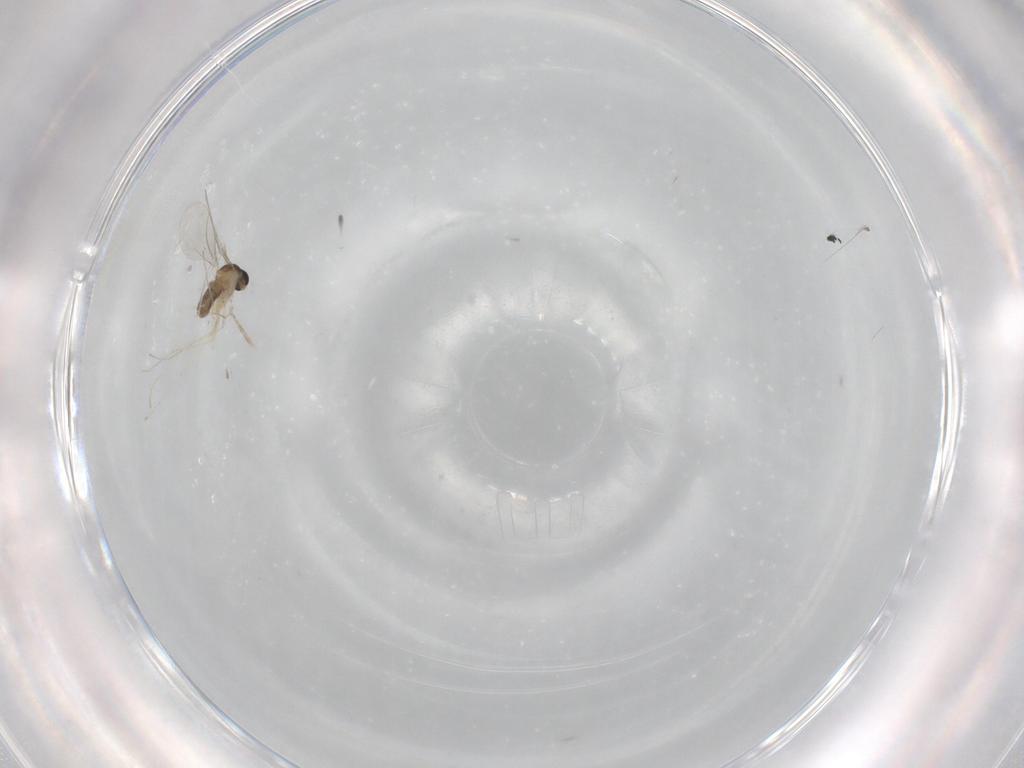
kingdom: Animalia
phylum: Arthropoda
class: Insecta
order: Diptera
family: Cecidomyiidae
